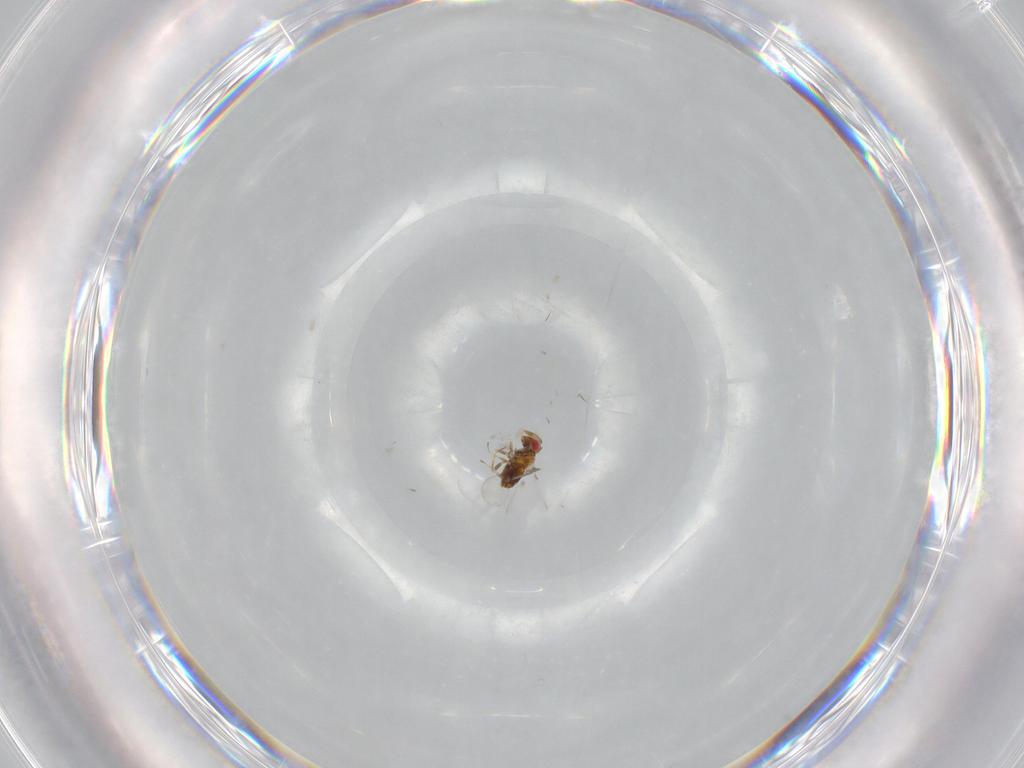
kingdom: Animalia
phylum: Arthropoda
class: Insecta
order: Hymenoptera
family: Trichogrammatidae
